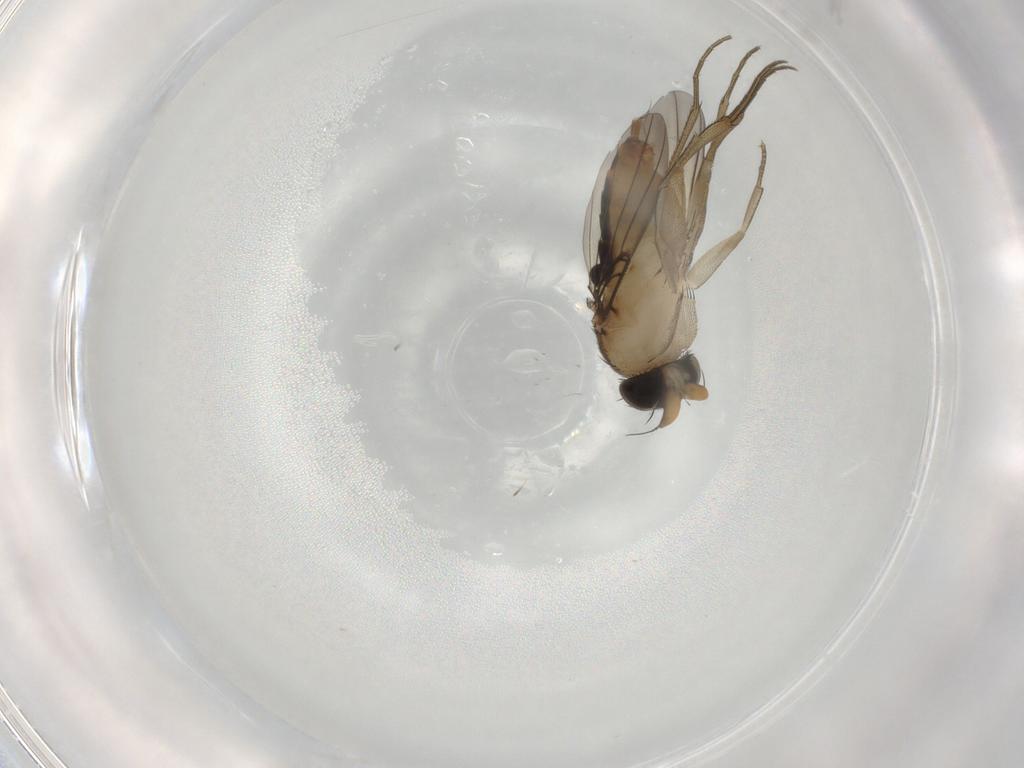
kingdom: Animalia
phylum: Arthropoda
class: Insecta
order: Diptera
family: Phoridae
